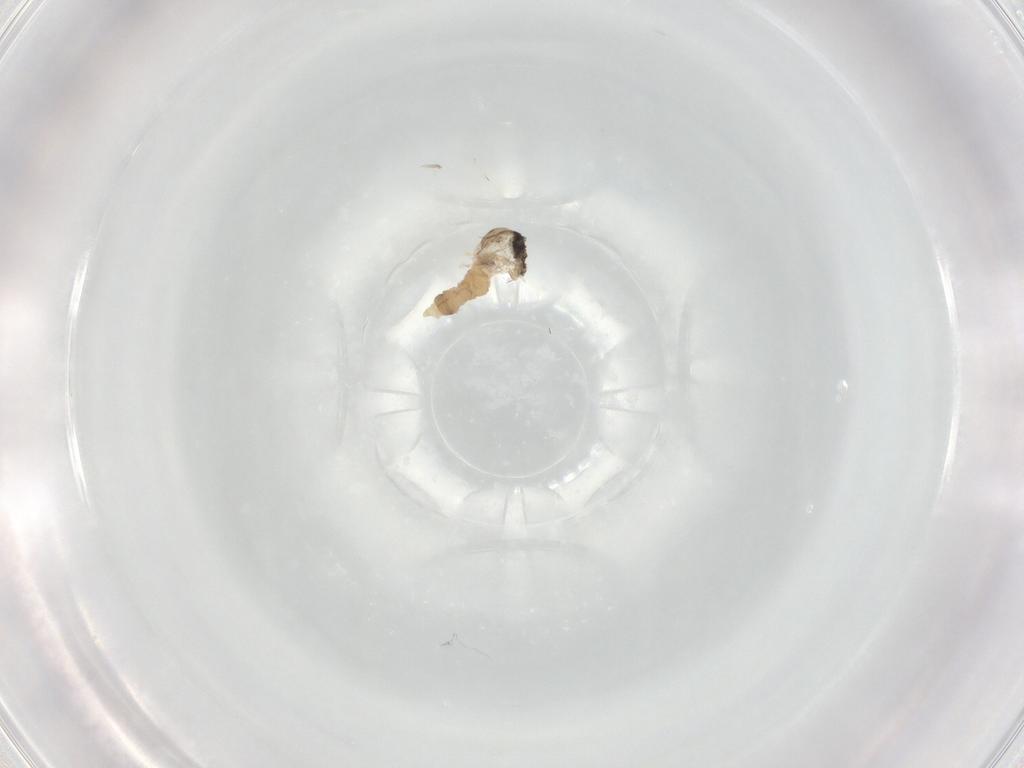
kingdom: Animalia
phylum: Arthropoda
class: Insecta
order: Diptera
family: Cecidomyiidae
